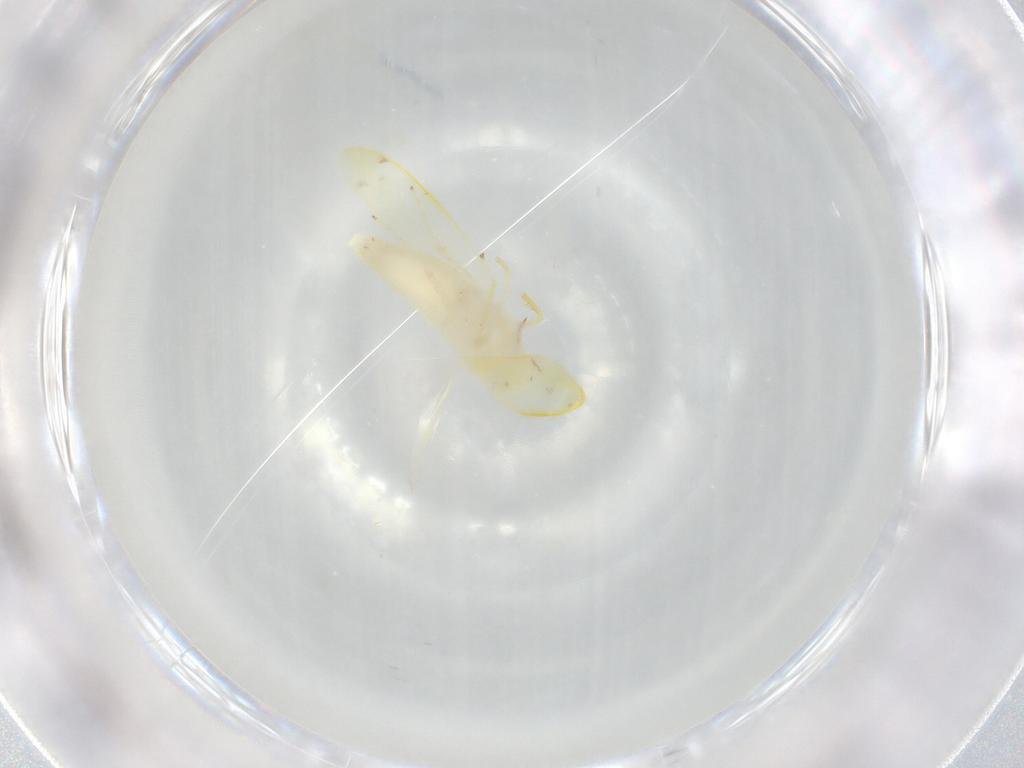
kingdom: Animalia
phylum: Arthropoda
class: Insecta
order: Hemiptera
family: Cicadellidae
